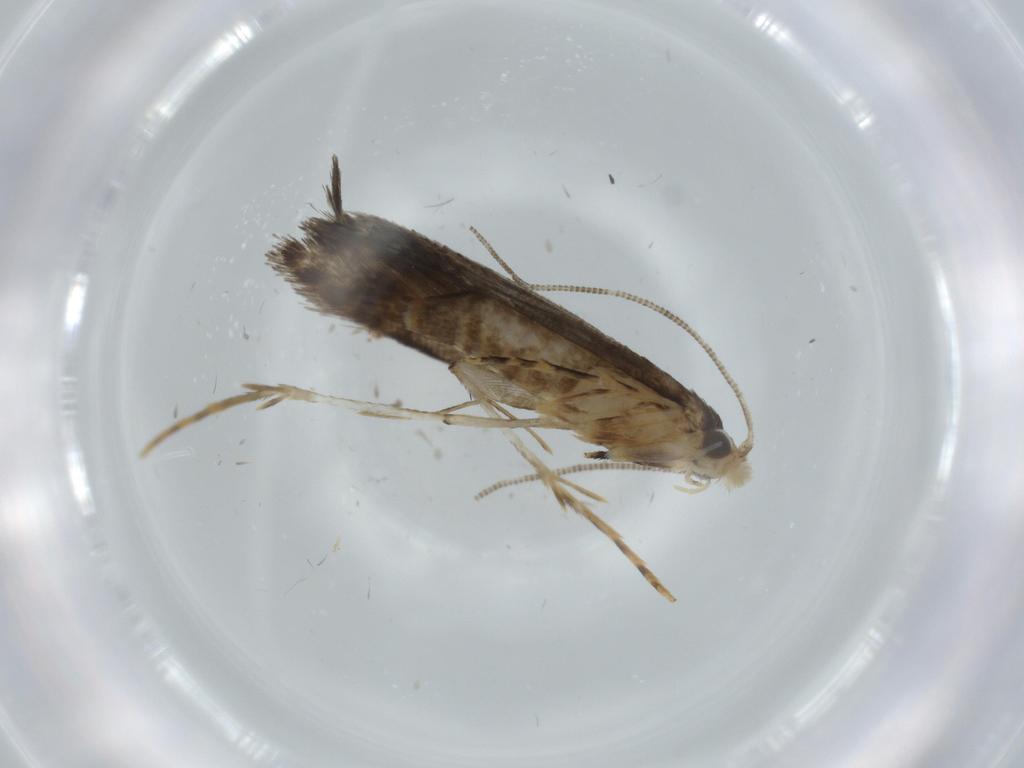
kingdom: Animalia
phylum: Arthropoda
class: Insecta
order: Lepidoptera
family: Meessiidae
